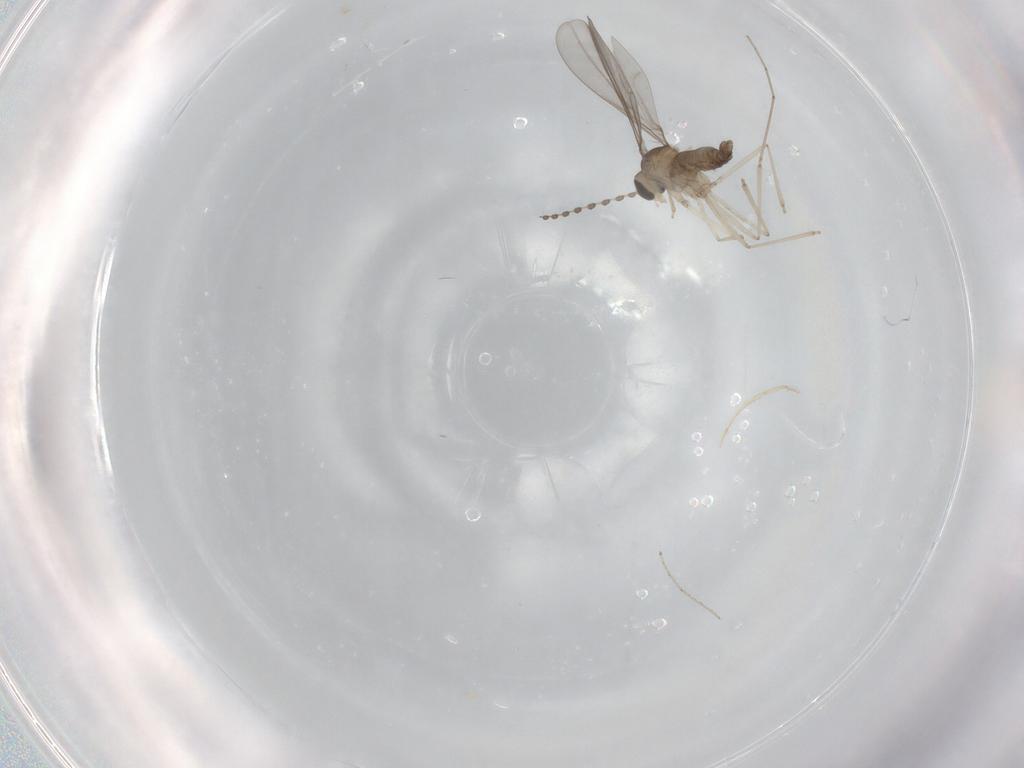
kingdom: Animalia
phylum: Arthropoda
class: Insecta
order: Diptera
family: Cecidomyiidae
